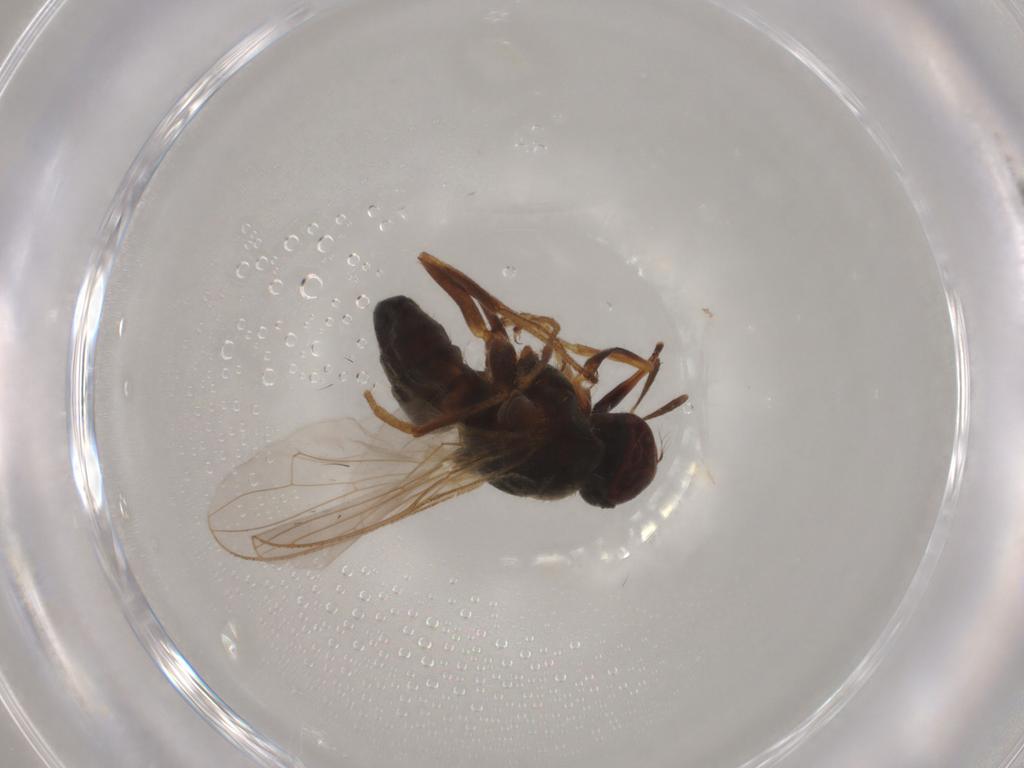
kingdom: Animalia
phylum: Arthropoda
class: Insecta
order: Diptera
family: Muscidae
